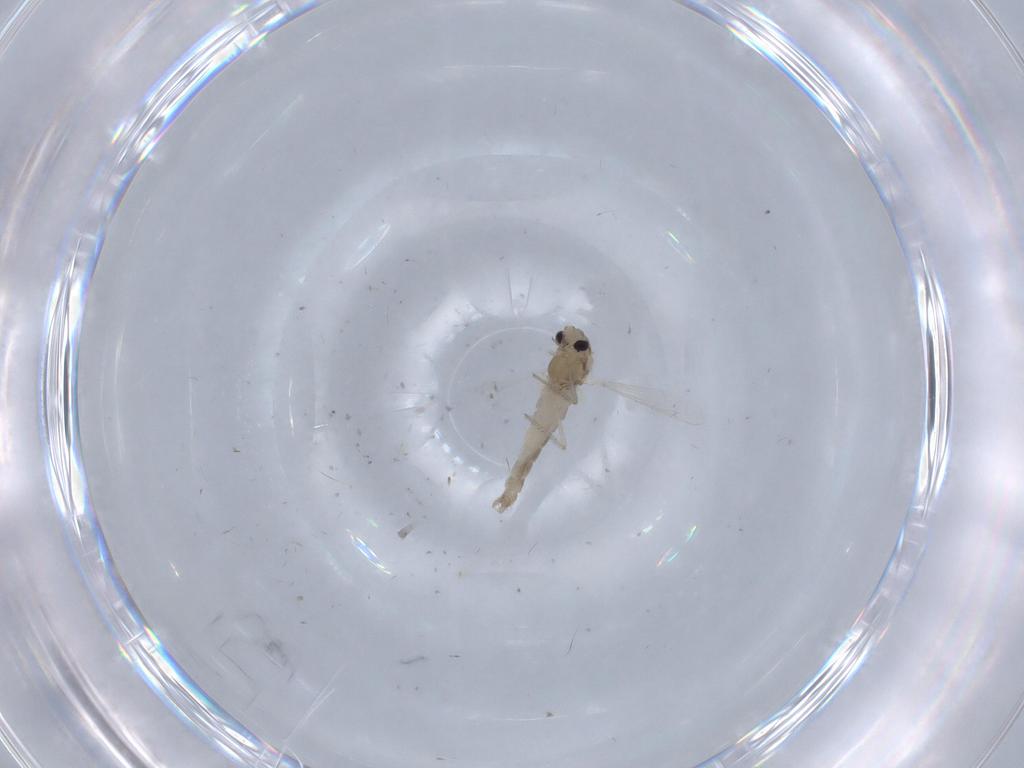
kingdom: Animalia
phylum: Arthropoda
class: Insecta
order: Diptera
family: Chironomidae
